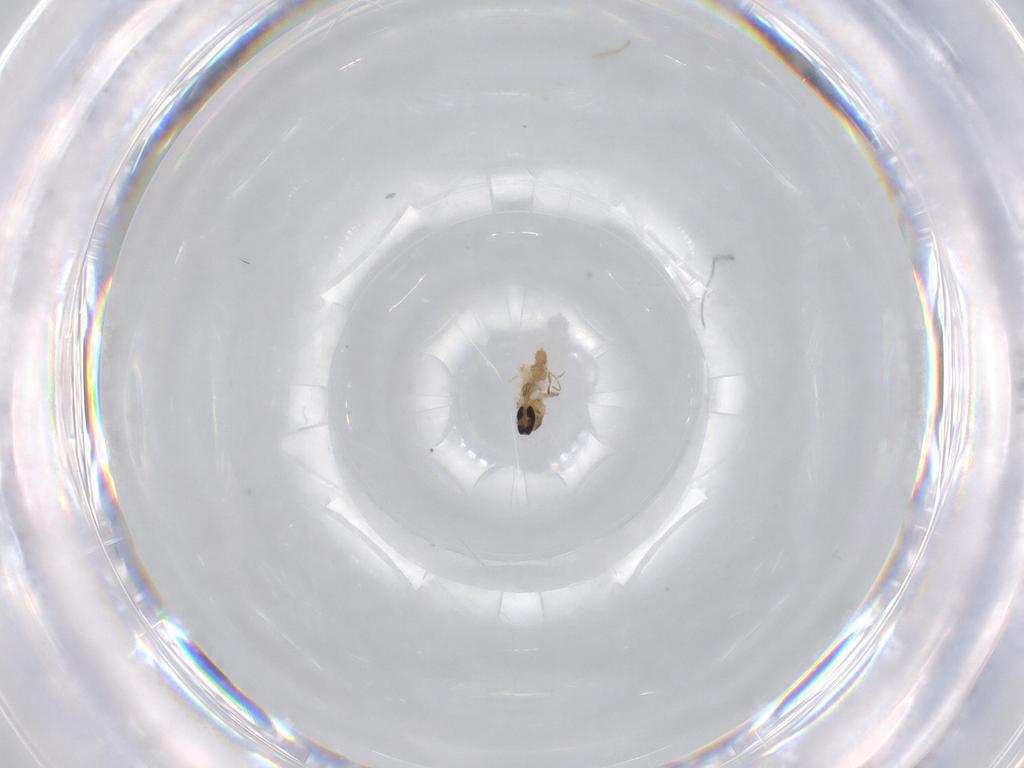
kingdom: Animalia
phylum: Arthropoda
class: Insecta
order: Diptera
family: Cecidomyiidae
